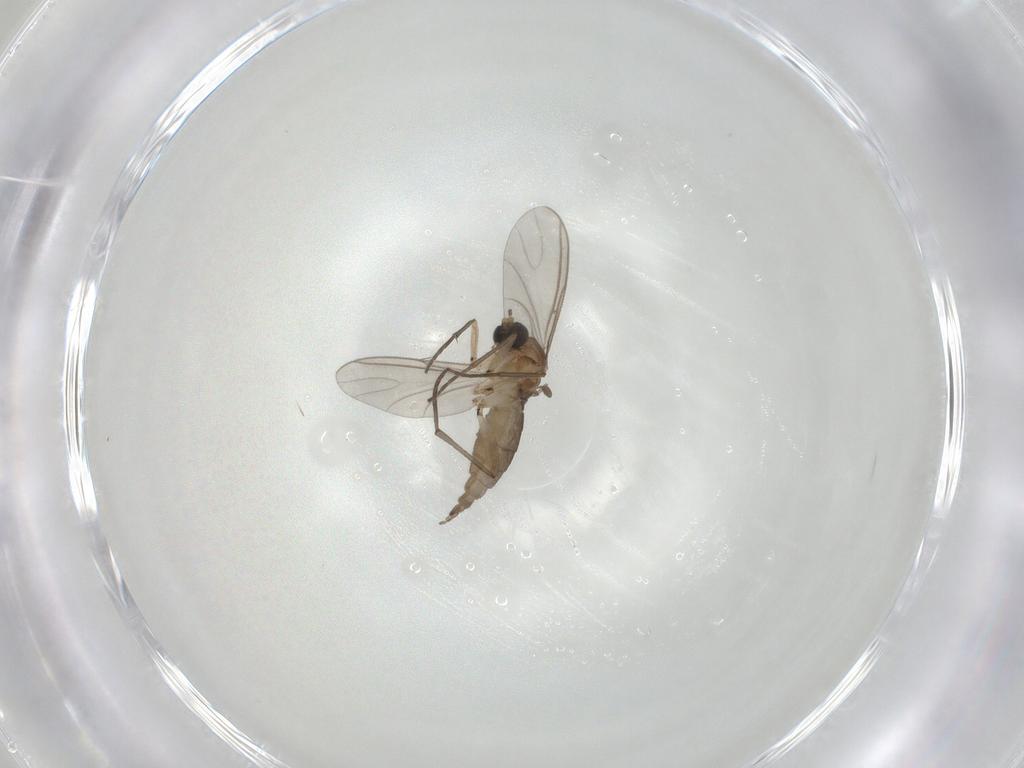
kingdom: Animalia
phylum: Arthropoda
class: Insecta
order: Diptera
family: Sciaridae
